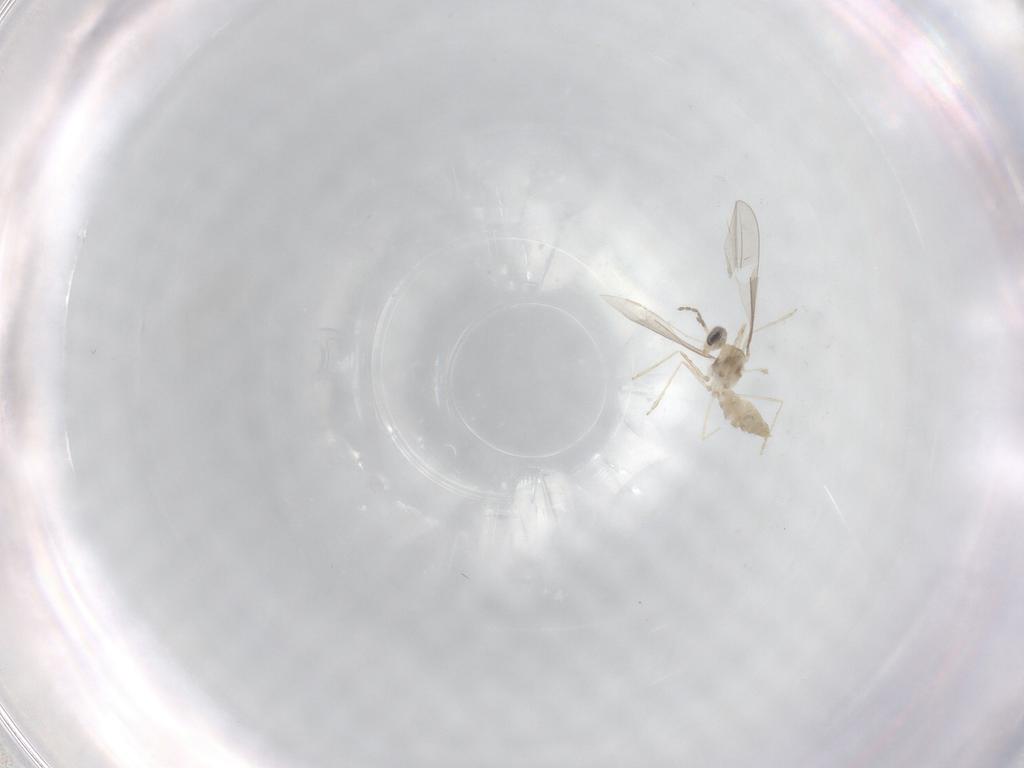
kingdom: Animalia
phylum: Arthropoda
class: Insecta
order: Diptera
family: Cecidomyiidae
